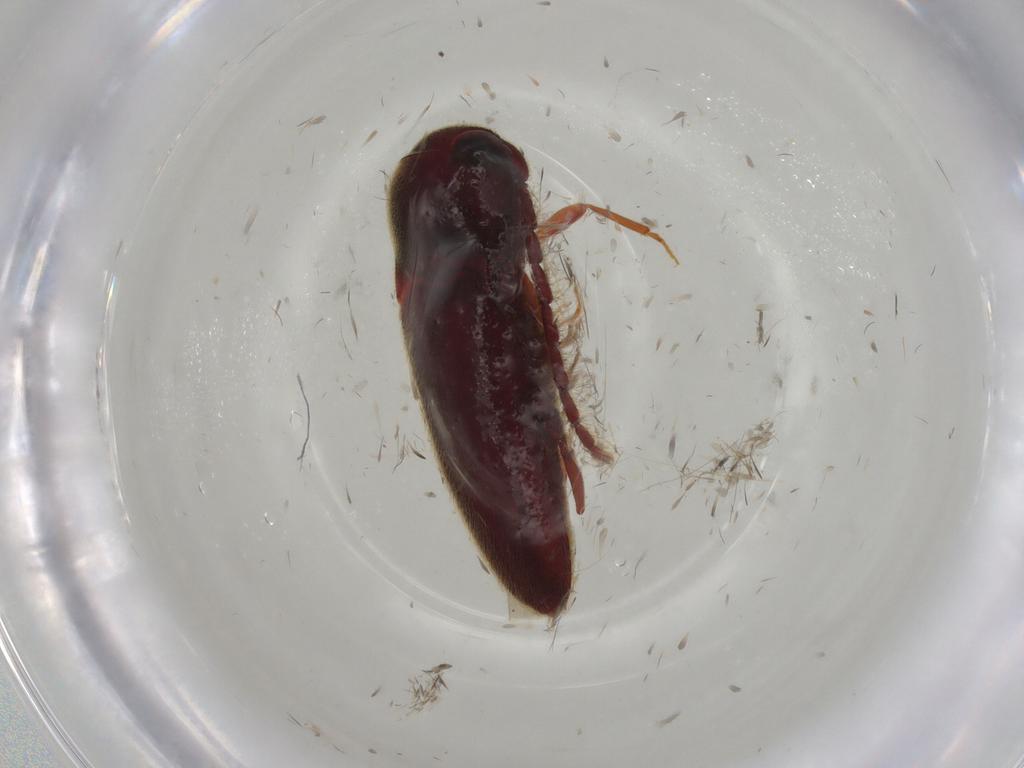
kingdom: Animalia
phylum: Arthropoda
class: Insecta
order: Coleoptera
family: Eucnemidae
